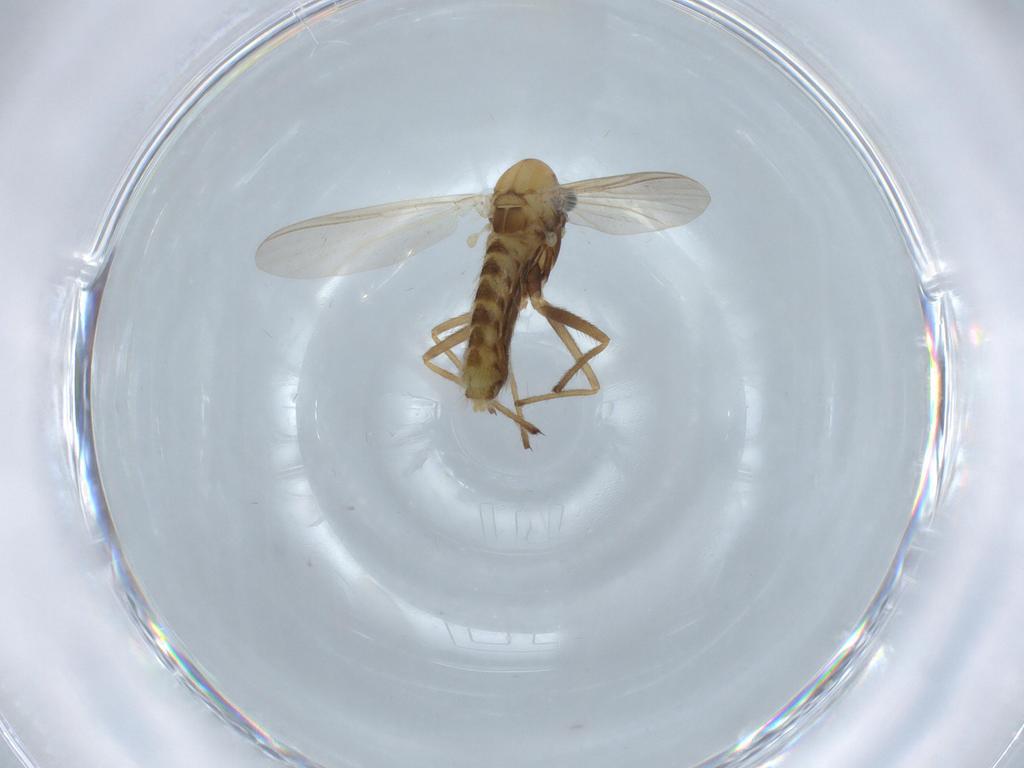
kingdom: Animalia
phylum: Arthropoda
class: Insecta
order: Diptera
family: Chironomidae
